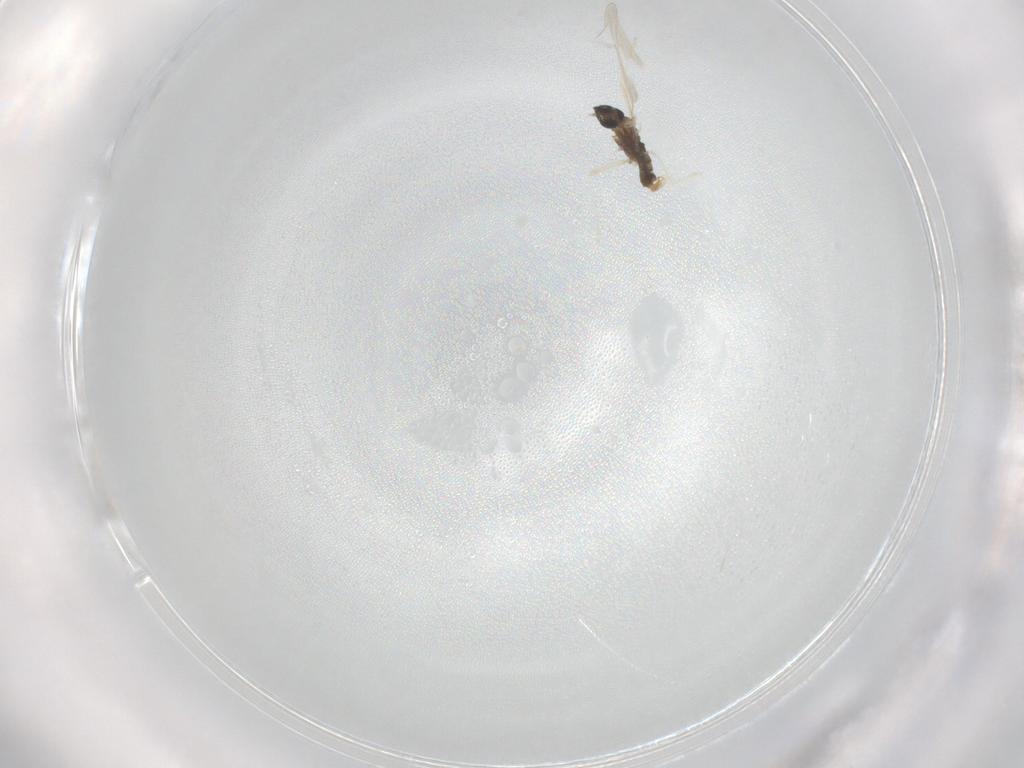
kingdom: Animalia
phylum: Arthropoda
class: Insecta
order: Diptera
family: Cecidomyiidae
